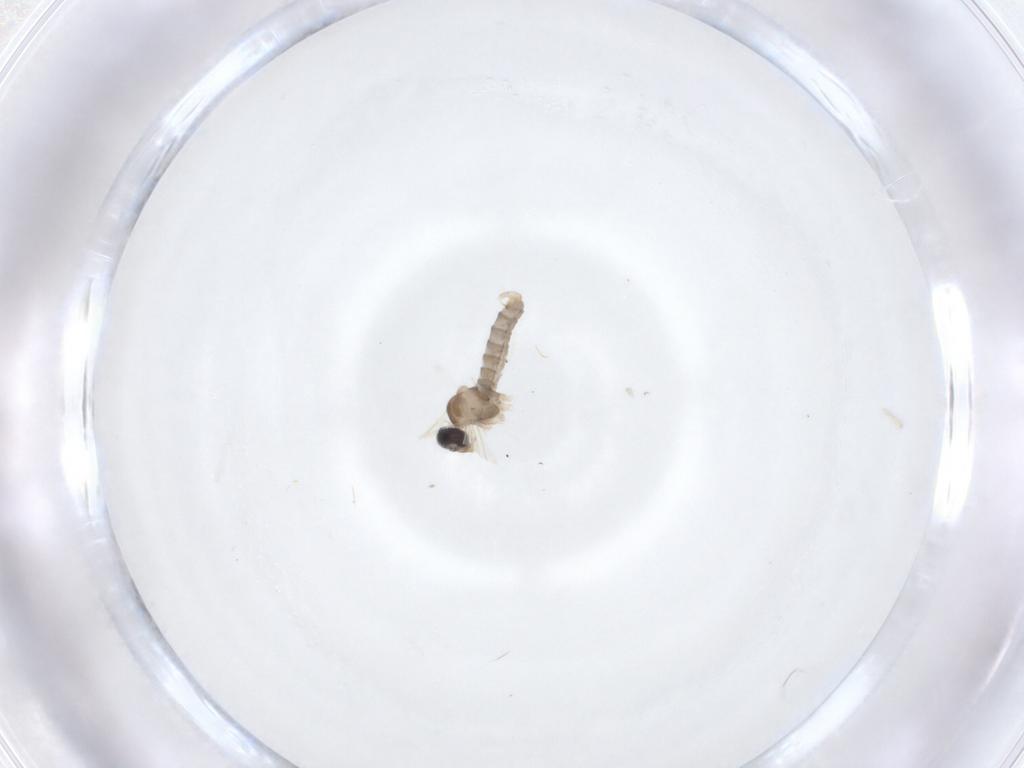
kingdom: Animalia
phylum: Arthropoda
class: Insecta
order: Diptera
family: Cecidomyiidae
